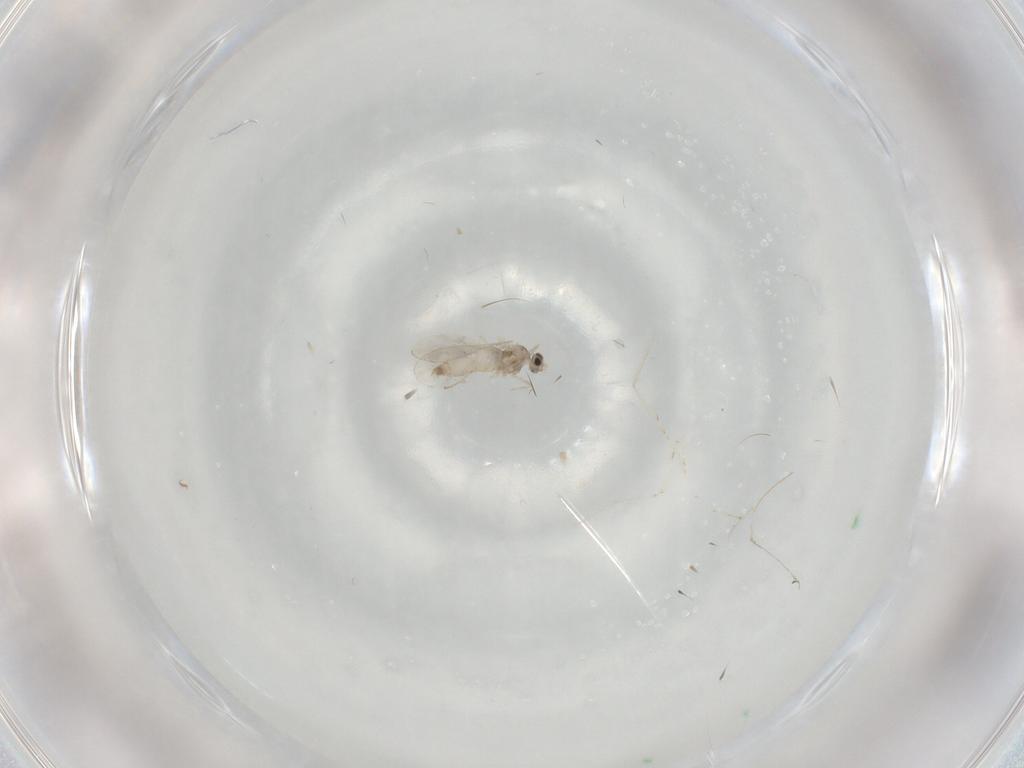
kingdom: Animalia
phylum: Arthropoda
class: Insecta
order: Diptera
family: Cecidomyiidae
